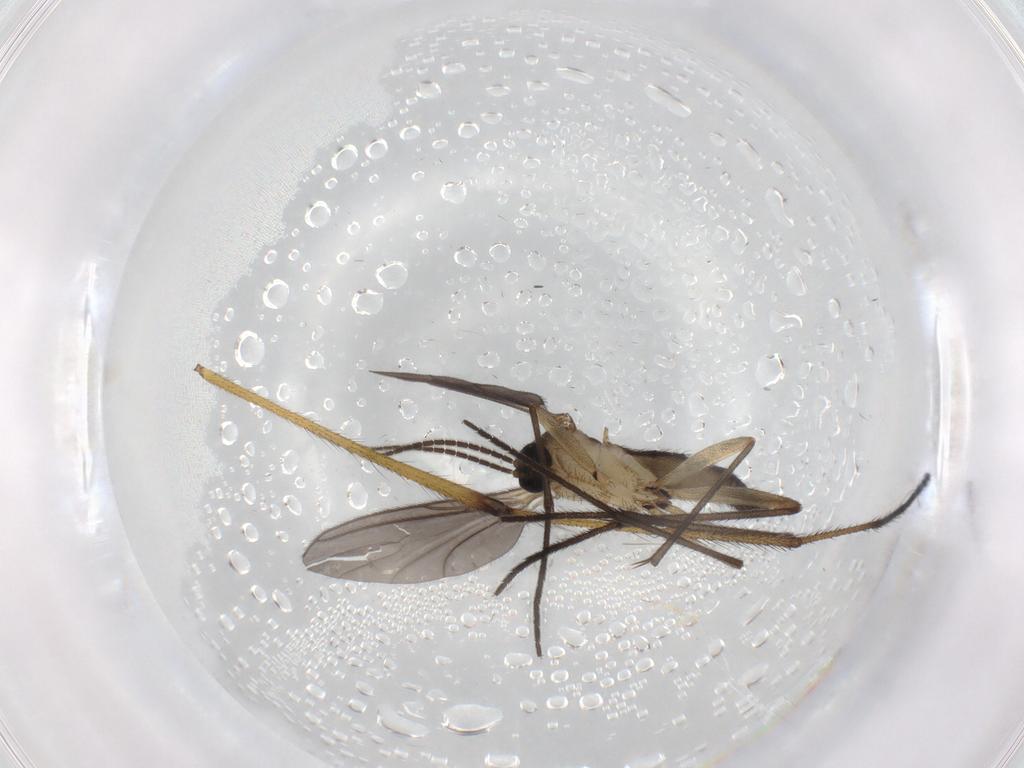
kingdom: Animalia
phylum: Arthropoda
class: Insecta
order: Diptera
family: Sciaridae
